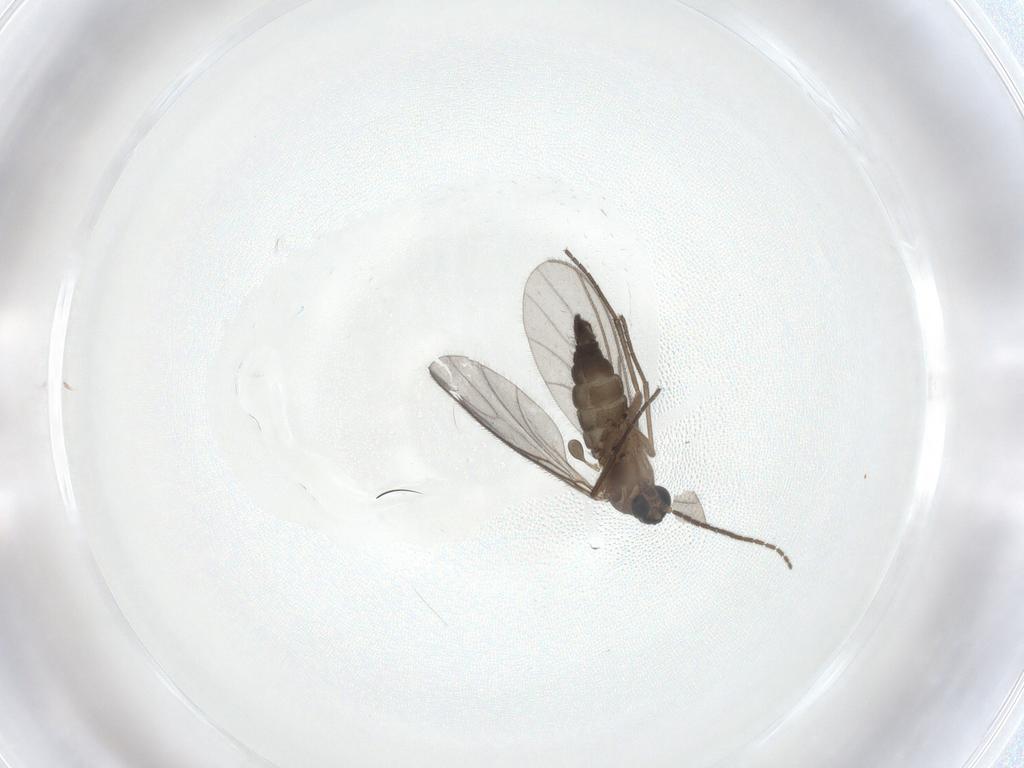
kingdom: Animalia
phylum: Arthropoda
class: Insecta
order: Diptera
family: Sciaridae
